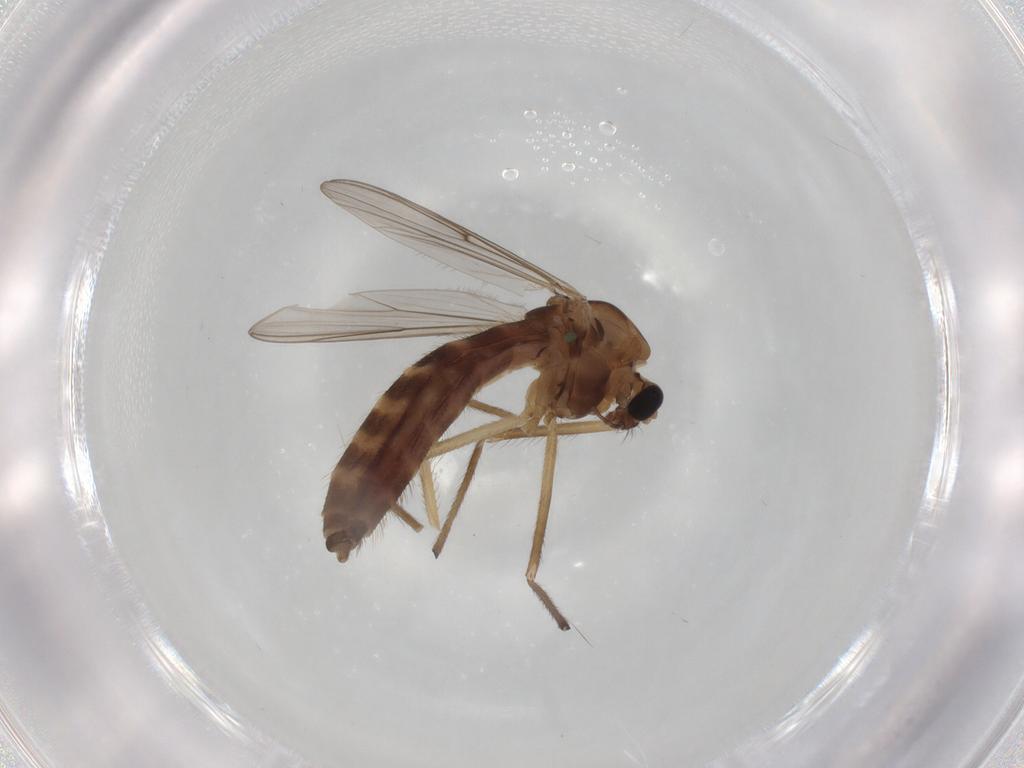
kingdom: Animalia
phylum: Arthropoda
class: Insecta
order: Diptera
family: Chironomidae
